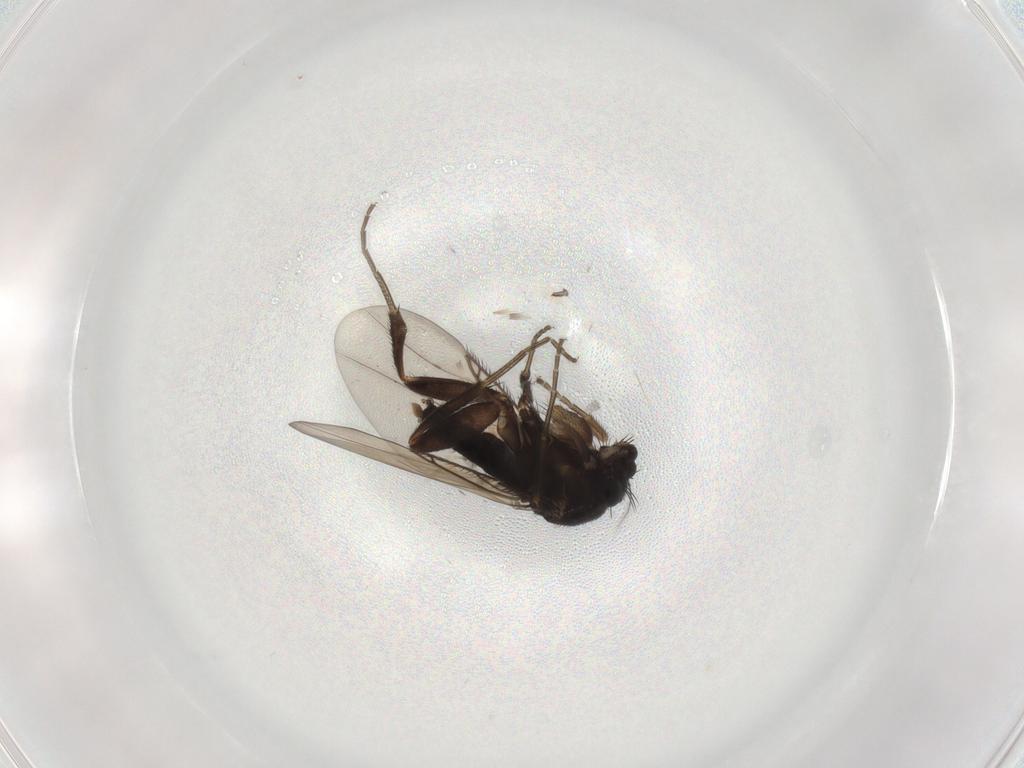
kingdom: Animalia
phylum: Arthropoda
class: Insecta
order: Diptera
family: Phoridae
